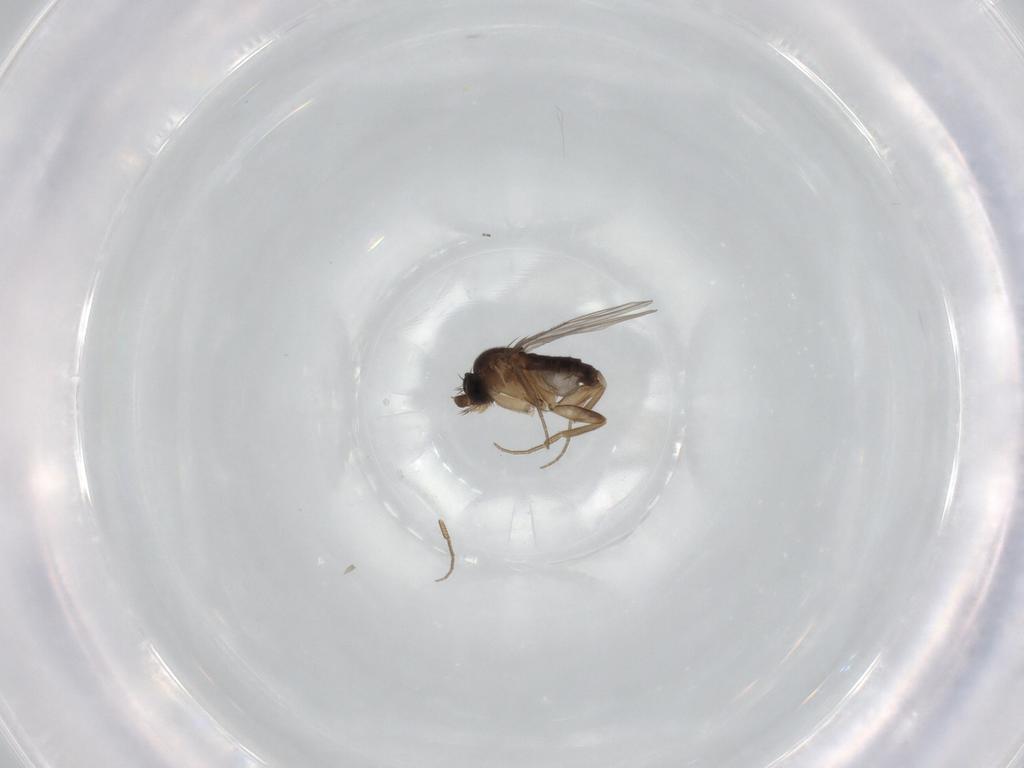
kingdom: Animalia
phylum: Arthropoda
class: Insecta
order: Diptera
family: Phoridae
